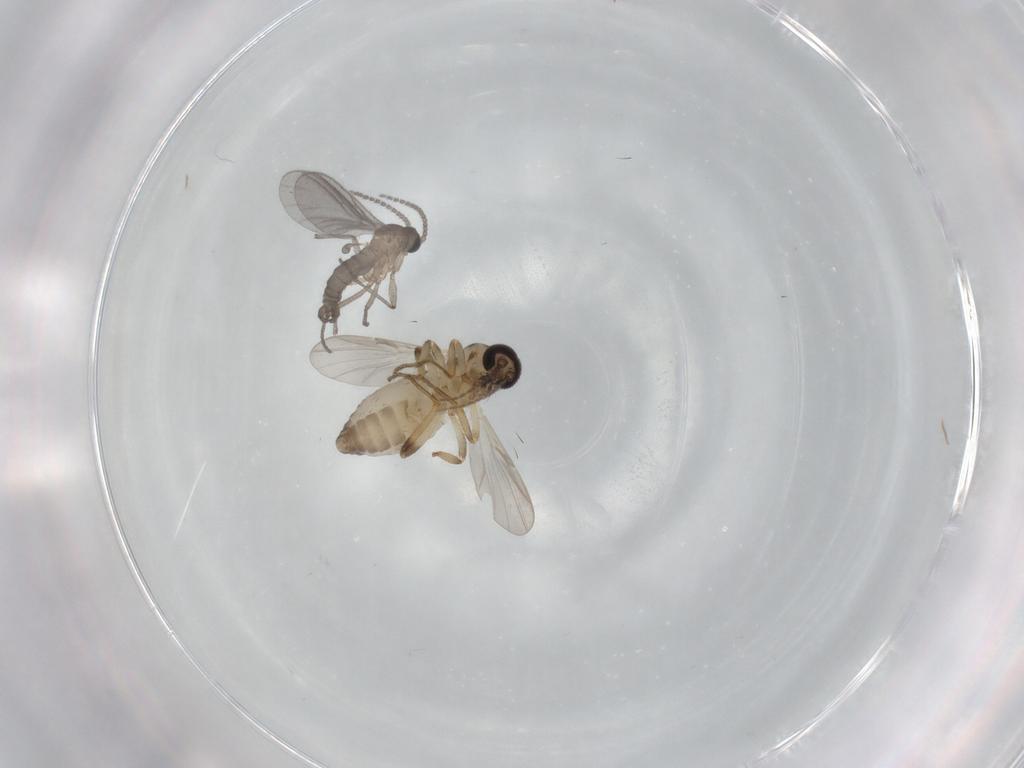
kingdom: Animalia
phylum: Arthropoda
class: Insecta
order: Diptera
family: Ceratopogonidae
